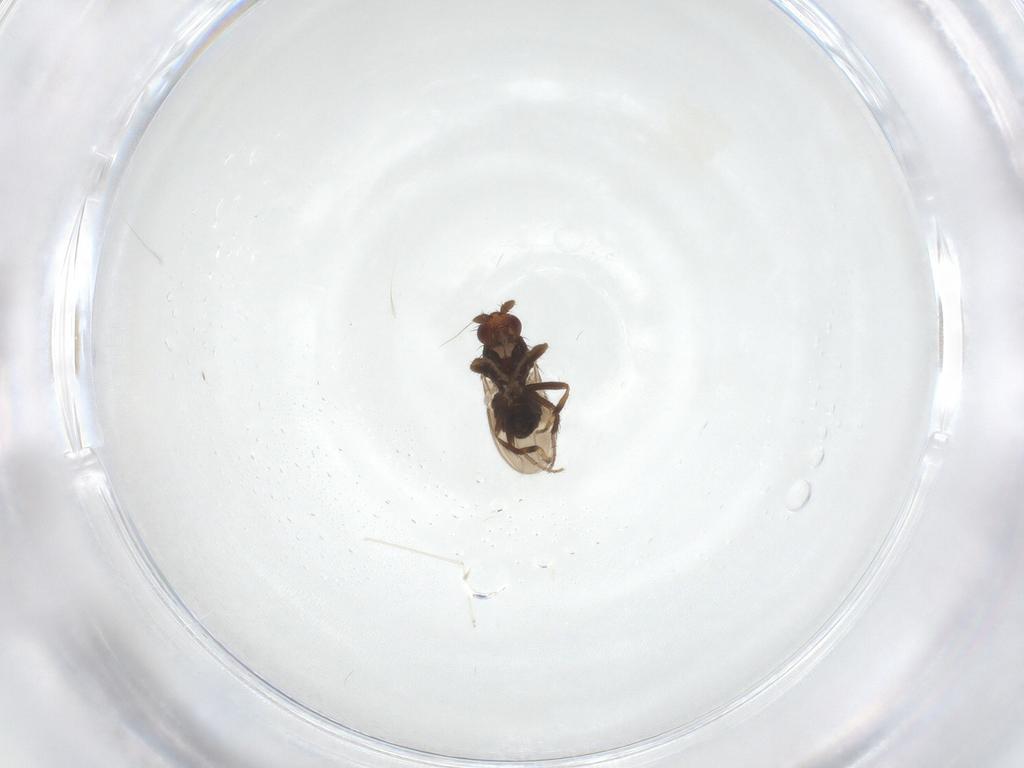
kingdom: Animalia
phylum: Arthropoda
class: Insecta
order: Diptera
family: Sphaeroceridae
